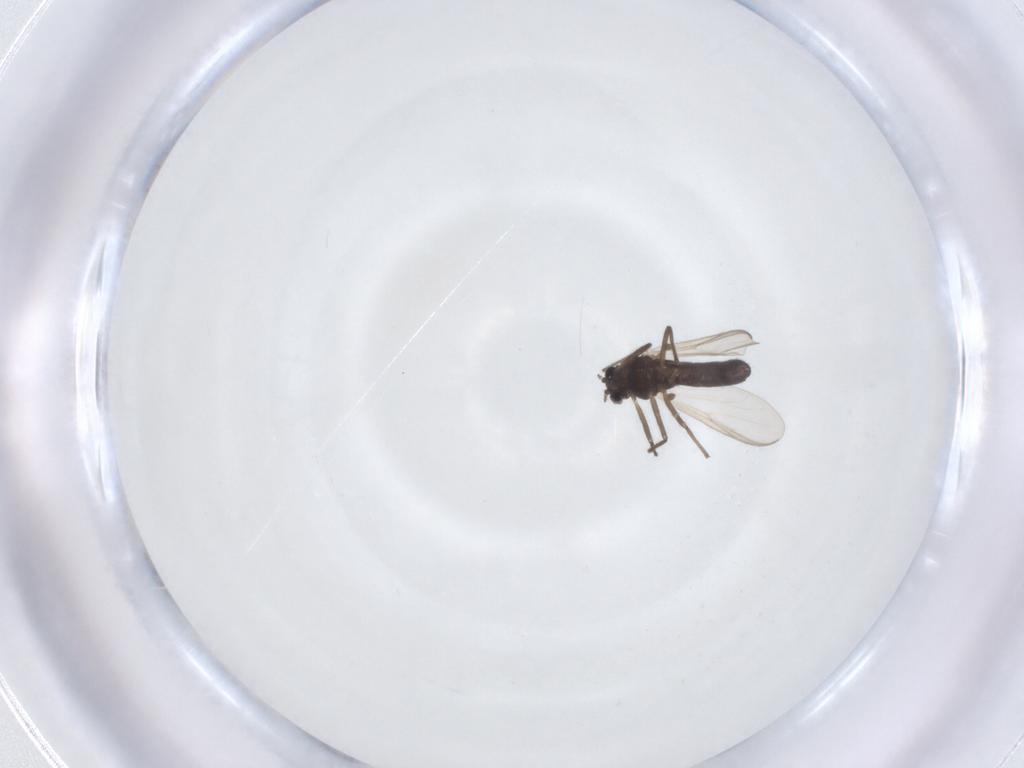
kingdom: Animalia
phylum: Arthropoda
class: Insecta
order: Diptera
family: Chironomidae
